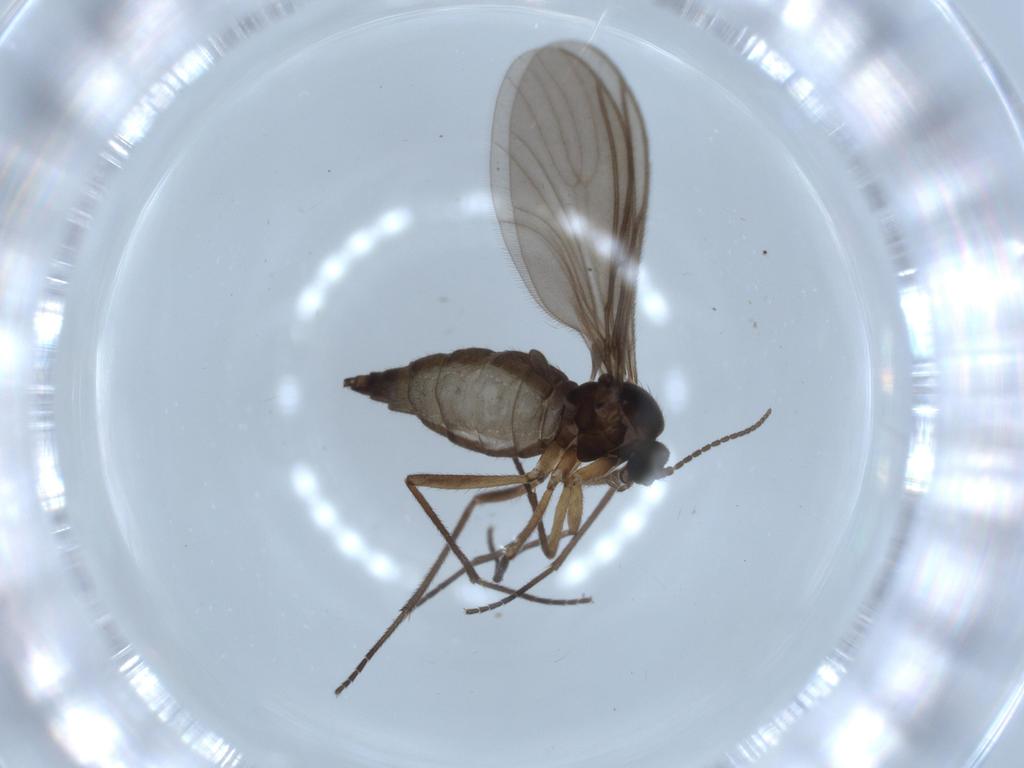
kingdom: Animalia
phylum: Arthropoda
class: Insecta
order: Diptera
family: Sciaridae
